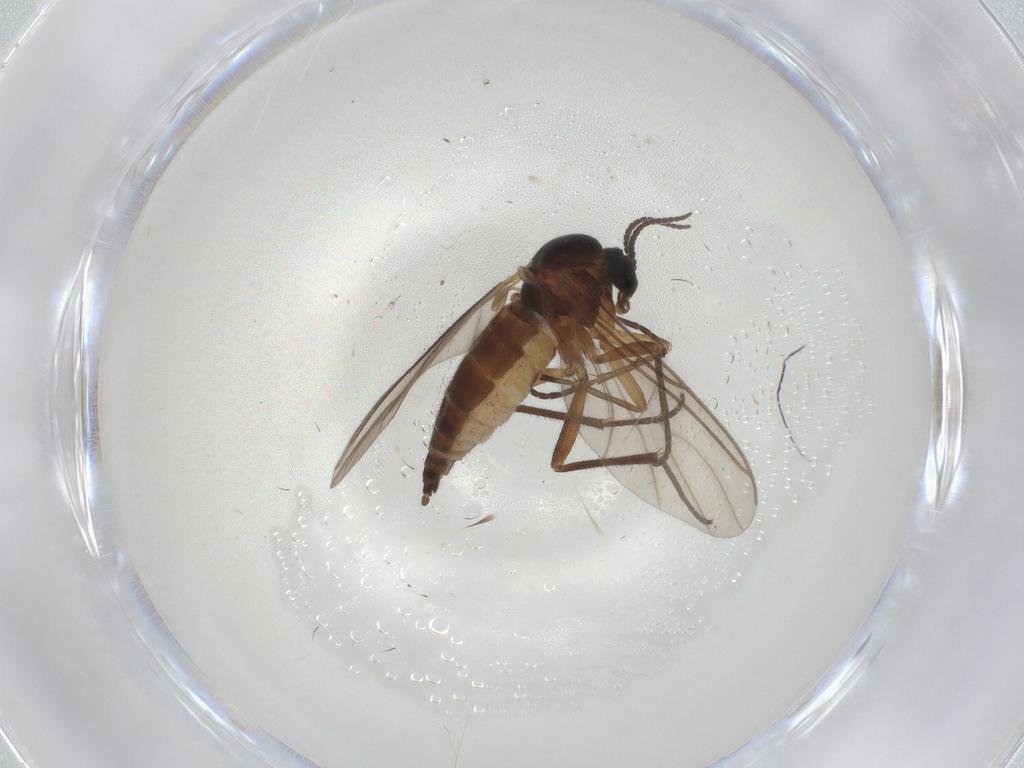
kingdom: Animalia
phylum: Arthropoda
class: Insecta
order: Diptera
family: Sciaridae
